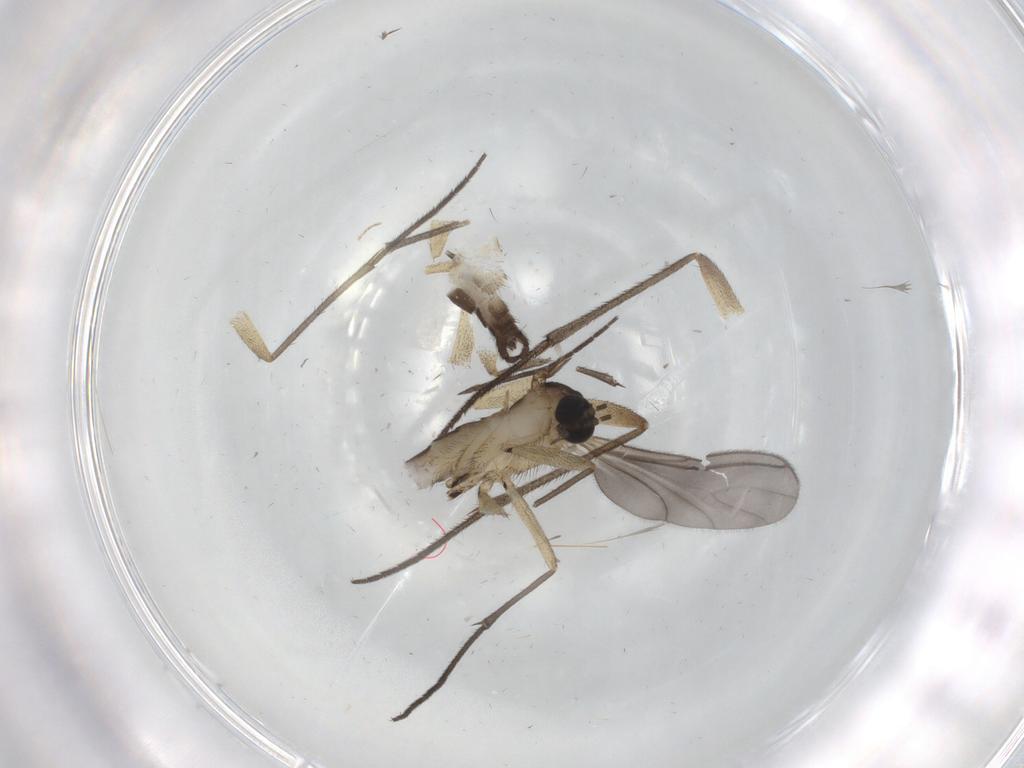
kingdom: Animalia
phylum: Arthropoda
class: Insecta
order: Diptera
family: Sciaridae
